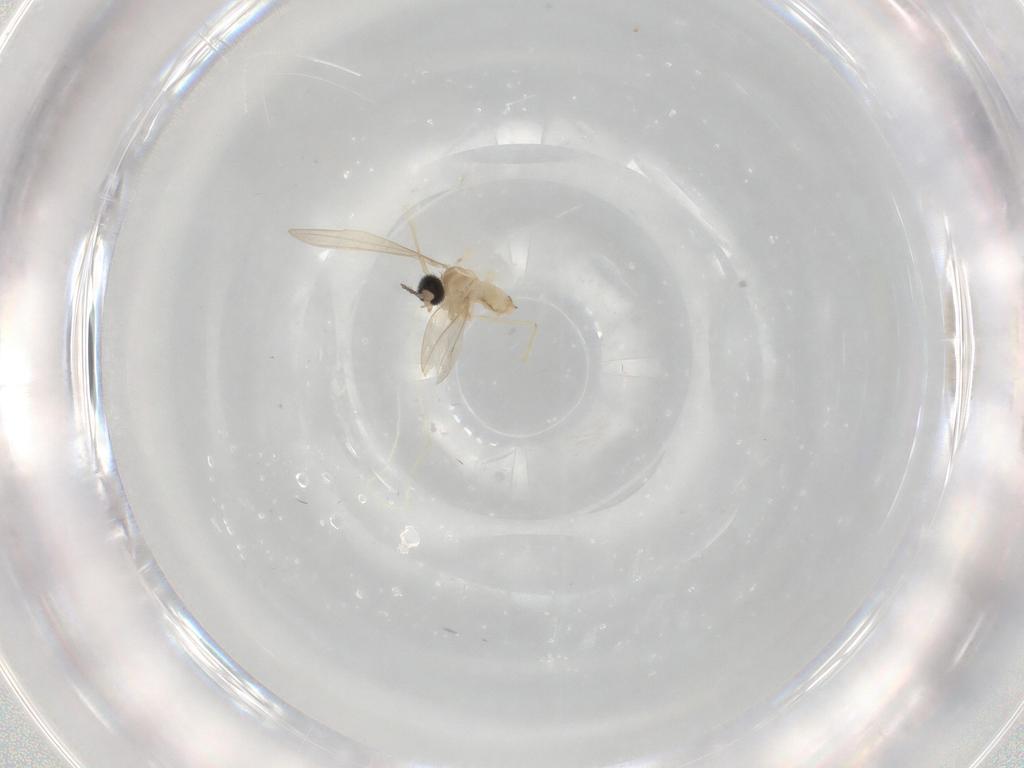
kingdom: Animalia
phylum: Arthropoda
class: Insecta
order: Diptera
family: Cecidomyiidae
